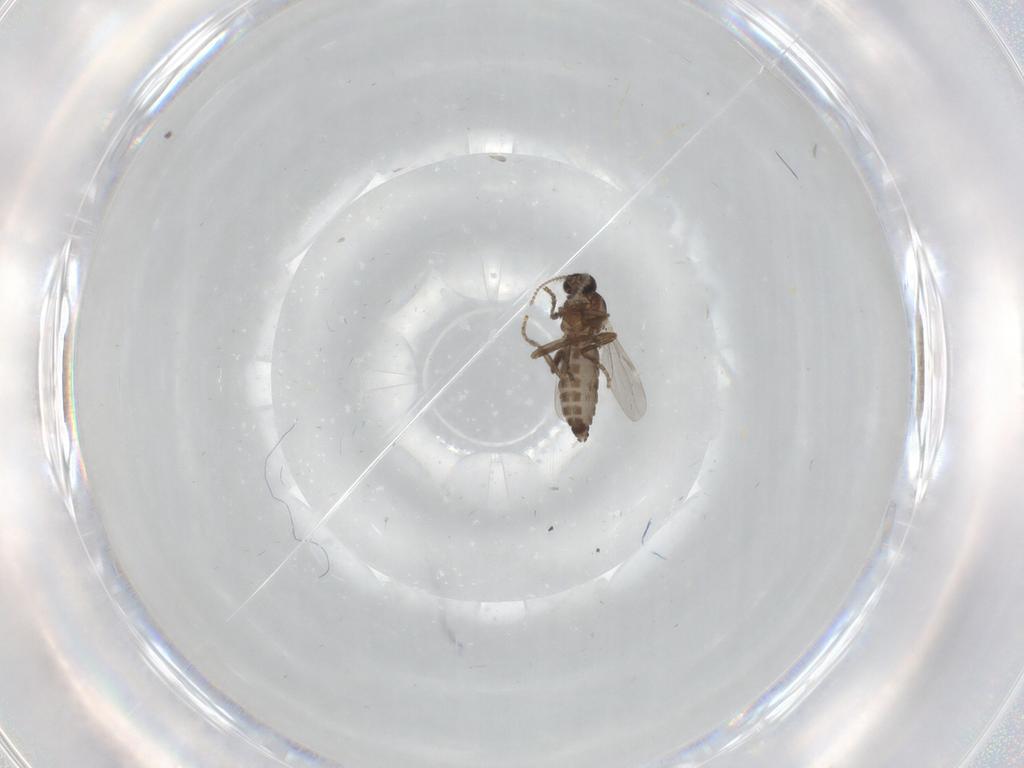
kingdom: Animalia
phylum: Arthropoda
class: Insecta
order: Diptera
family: Ceratopogonidae
